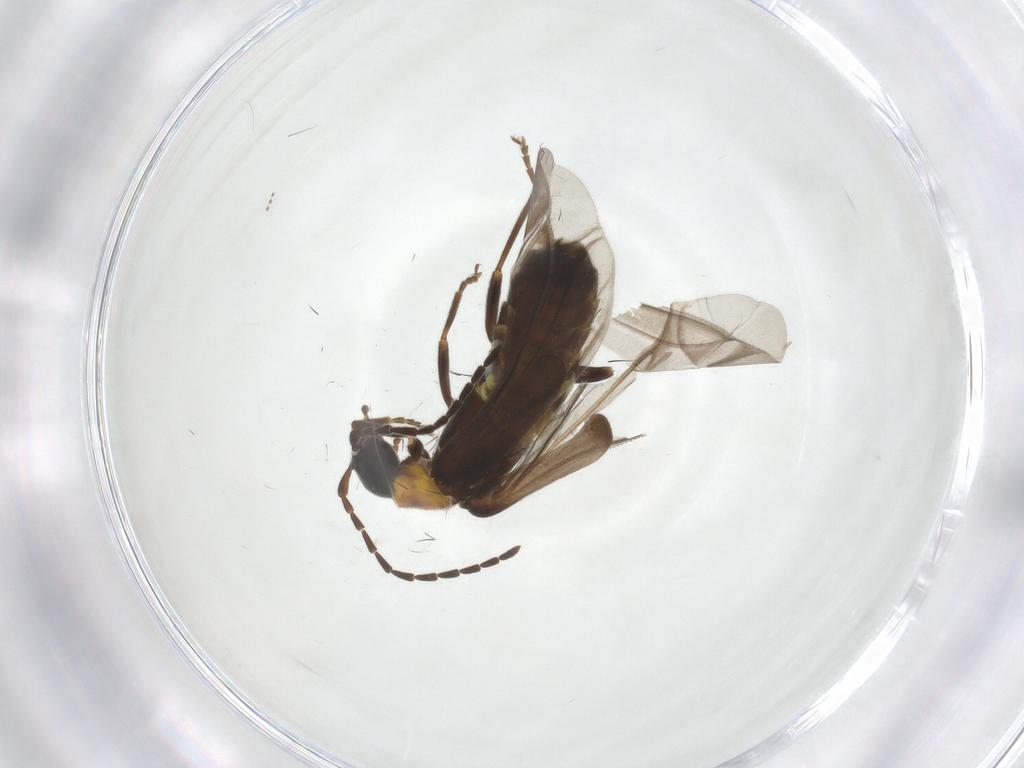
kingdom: Animalia
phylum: Arthropoda
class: Insecta
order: Coleoptera
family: Cantharidae
